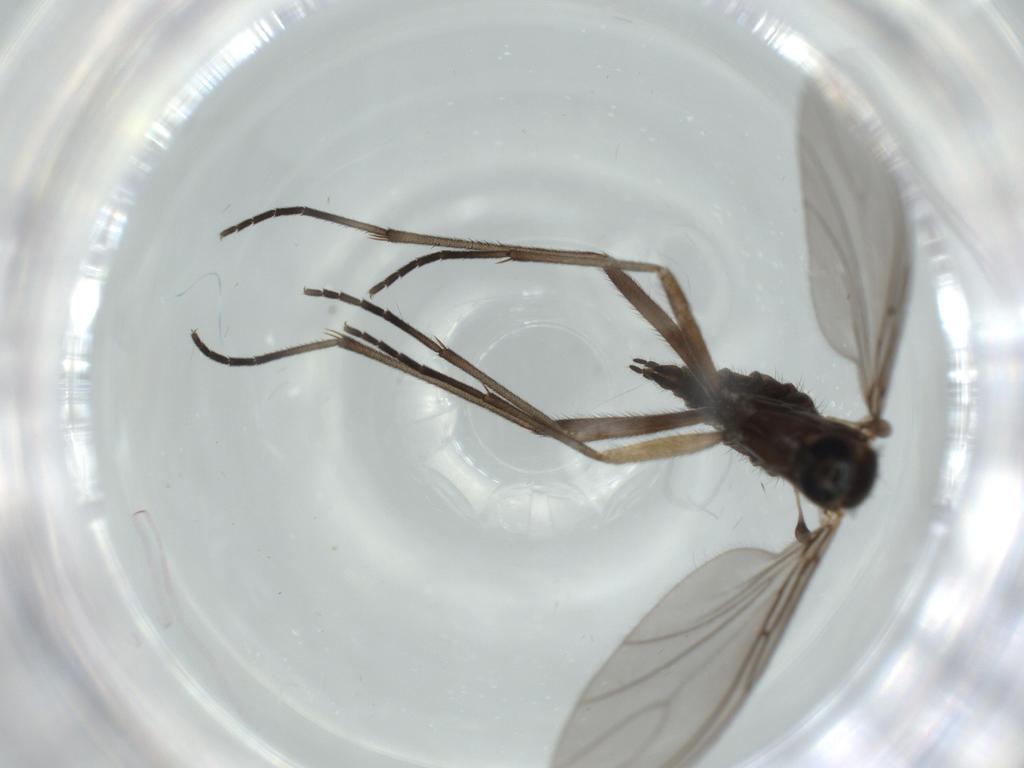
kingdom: Animalia
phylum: Arthropoda
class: Insecta
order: Diptera
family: Sciaridae
